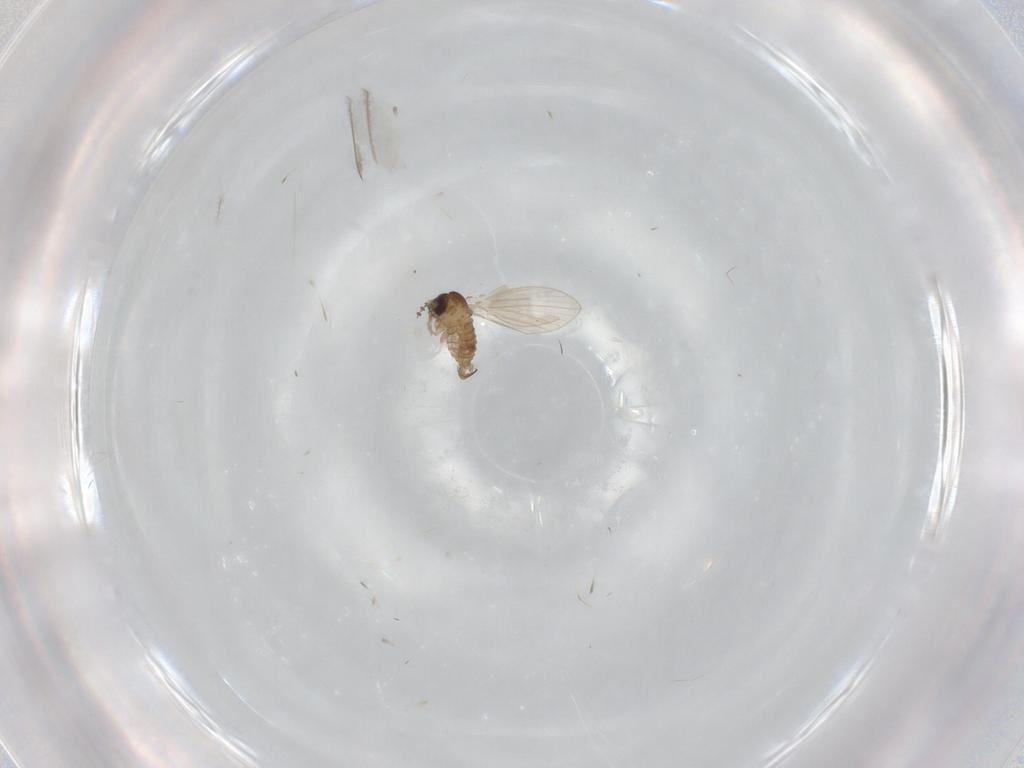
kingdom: Animalia
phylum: Arthropoda
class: Insecta
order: Diptera
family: Psychodidae
